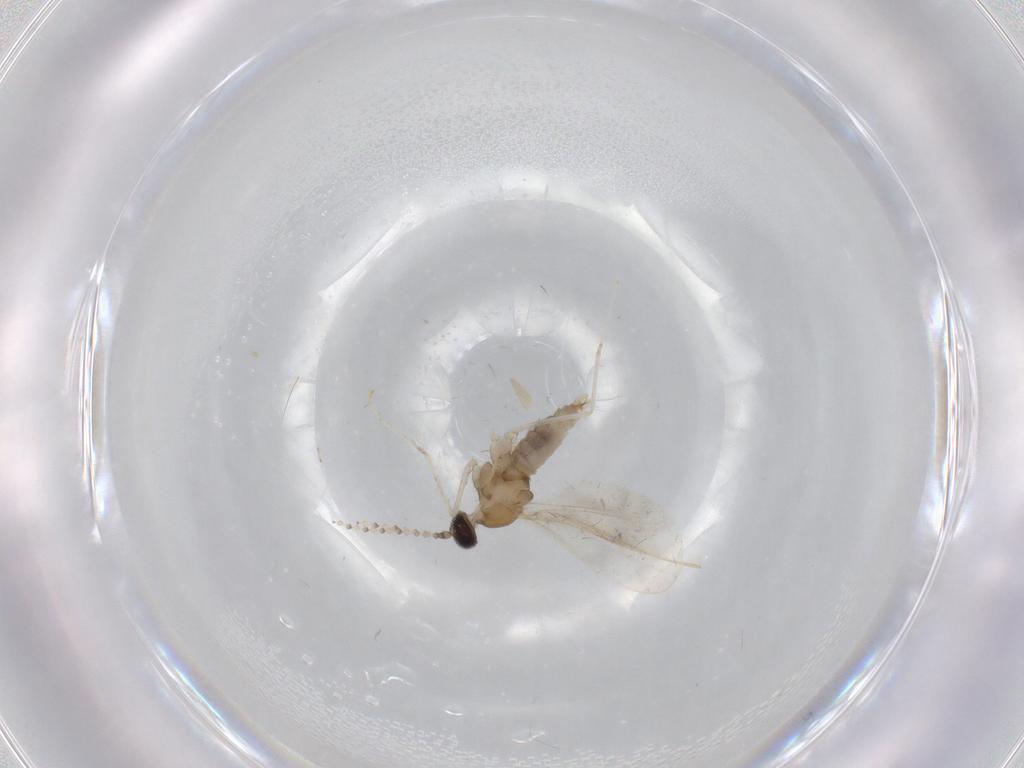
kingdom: Animalia
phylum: Arthropoda
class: Insecta
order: Diptera
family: Cecidomyiidae
